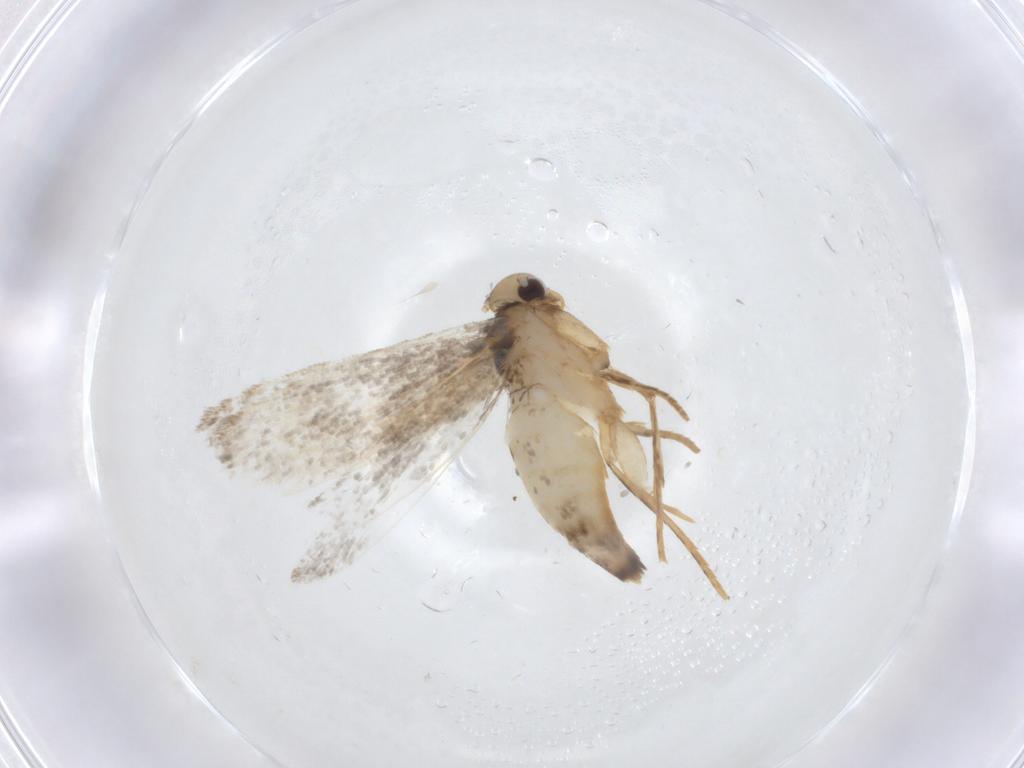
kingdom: Animalia
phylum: Arthropoda
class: Insecta
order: Lepidoptera
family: Gelechiidae
